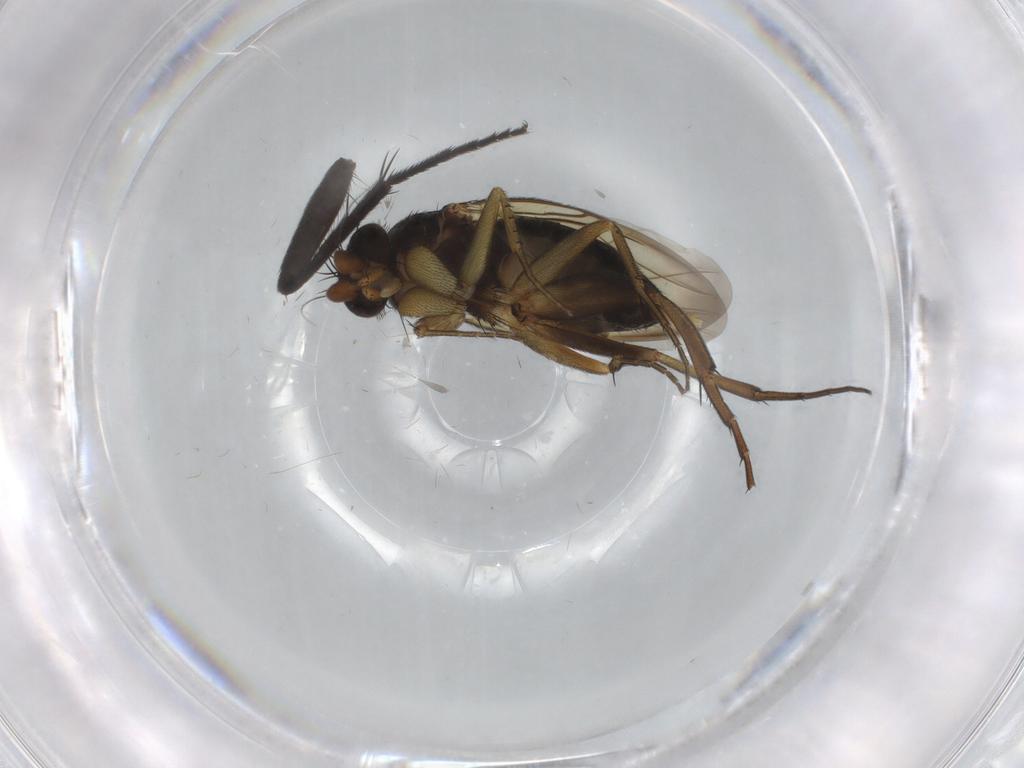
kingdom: Animalia
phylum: Arthropoda
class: Insecta
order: Diptera
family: Phoridae
